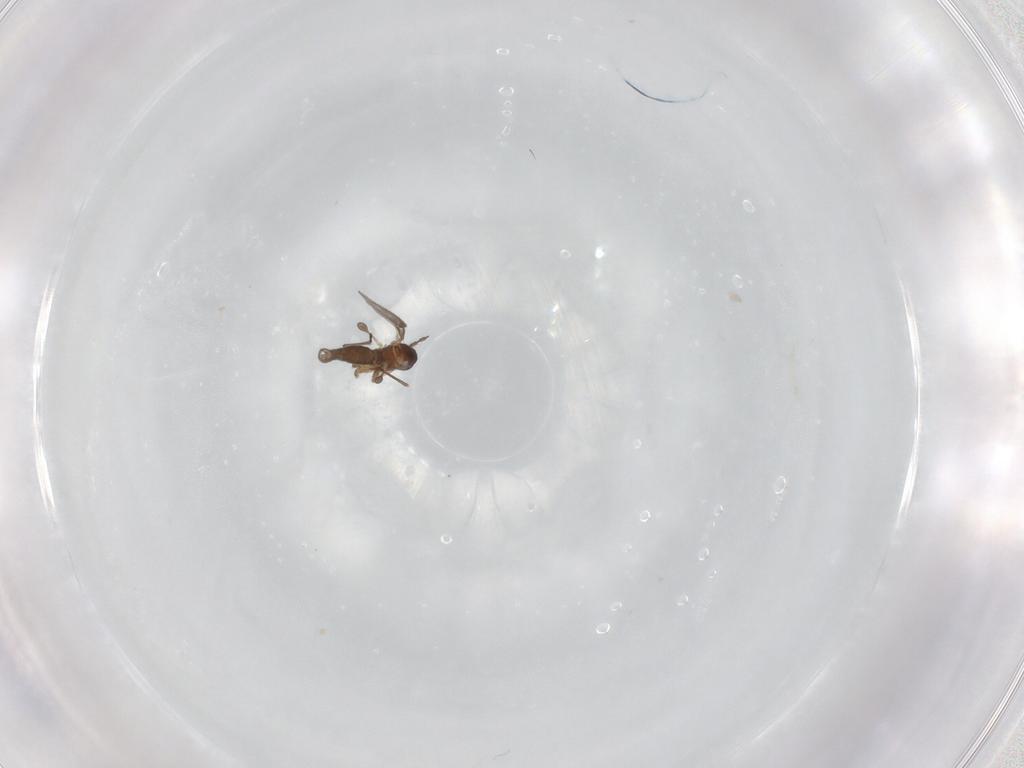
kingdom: Animalia
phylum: Arthropoda
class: Insecta
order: Diptera
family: Sciaridae
